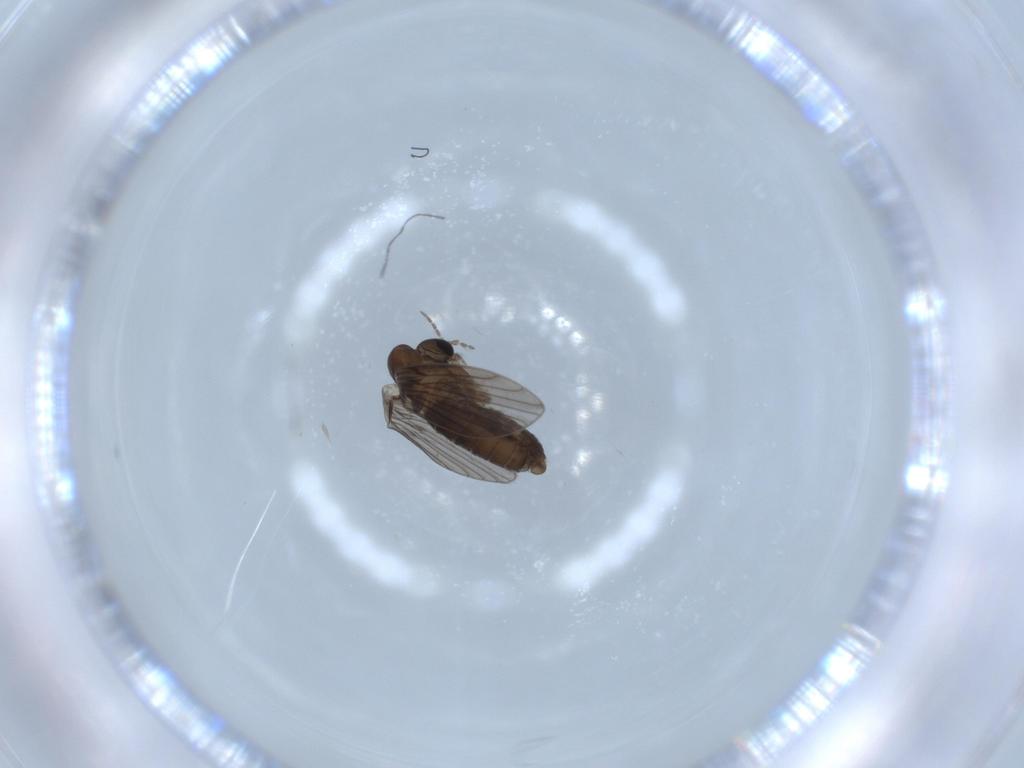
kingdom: Animalia
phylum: Arthropoda
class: Insecta
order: Diptera
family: Psychodidae
